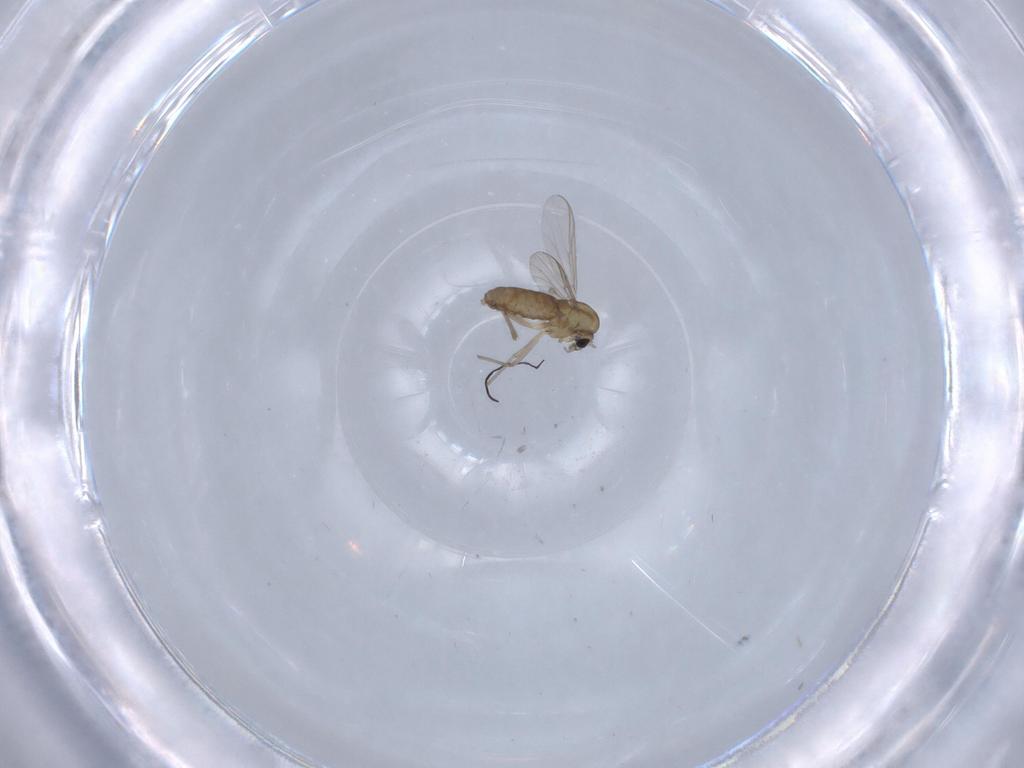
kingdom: Animalia
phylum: Arthropoda
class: Insecta
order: Diptera
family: Chironomidae
